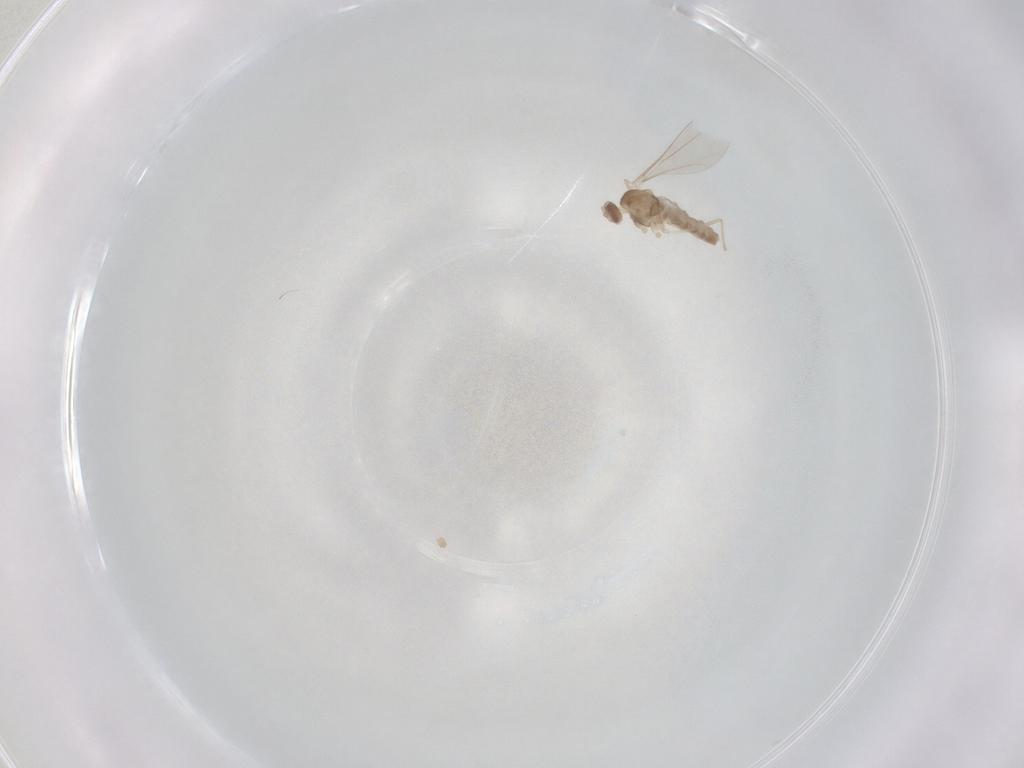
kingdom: Animalia
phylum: Arthropoda
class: Insecta
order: Diptera
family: Cecidomyiidae
